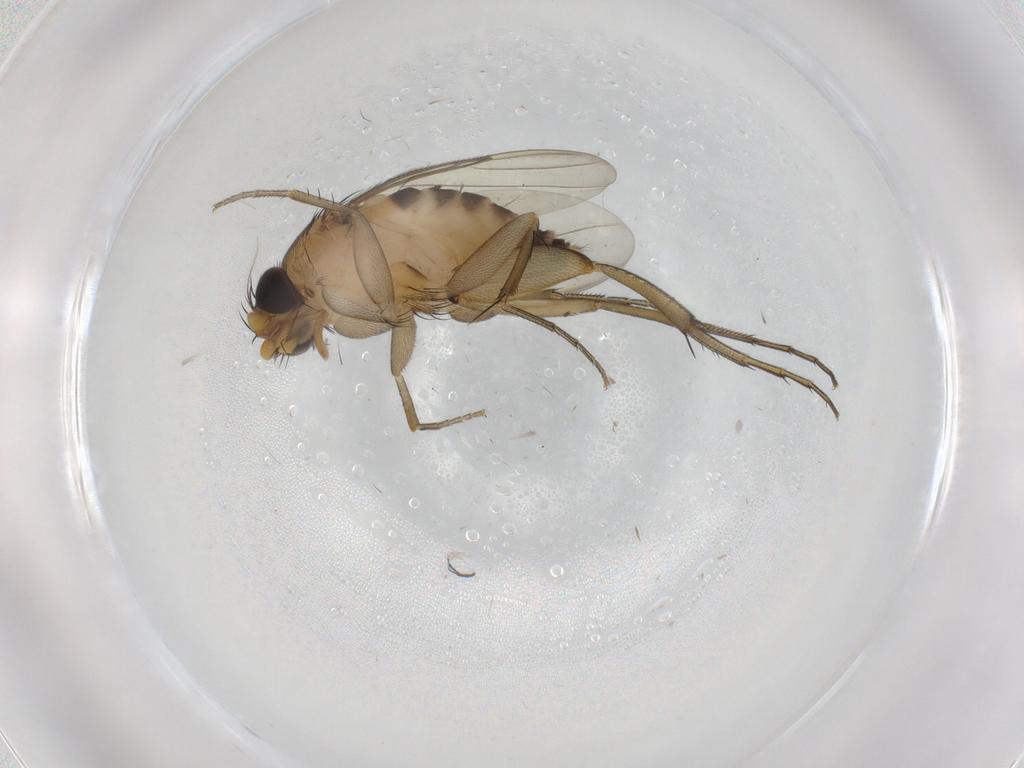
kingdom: Animalia
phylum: Arthropoda
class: Insecta
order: Diptera
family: Phoridae
